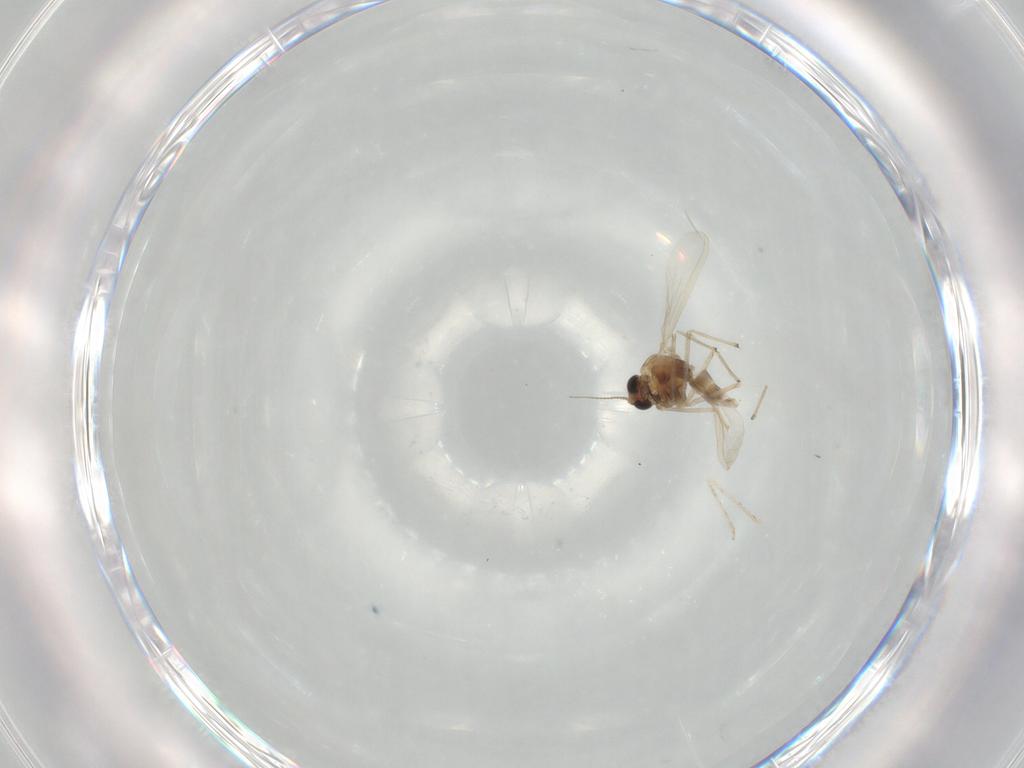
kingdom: Animalia
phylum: Arthropoda
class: Insecta
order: Diptera
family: Chironomidae
